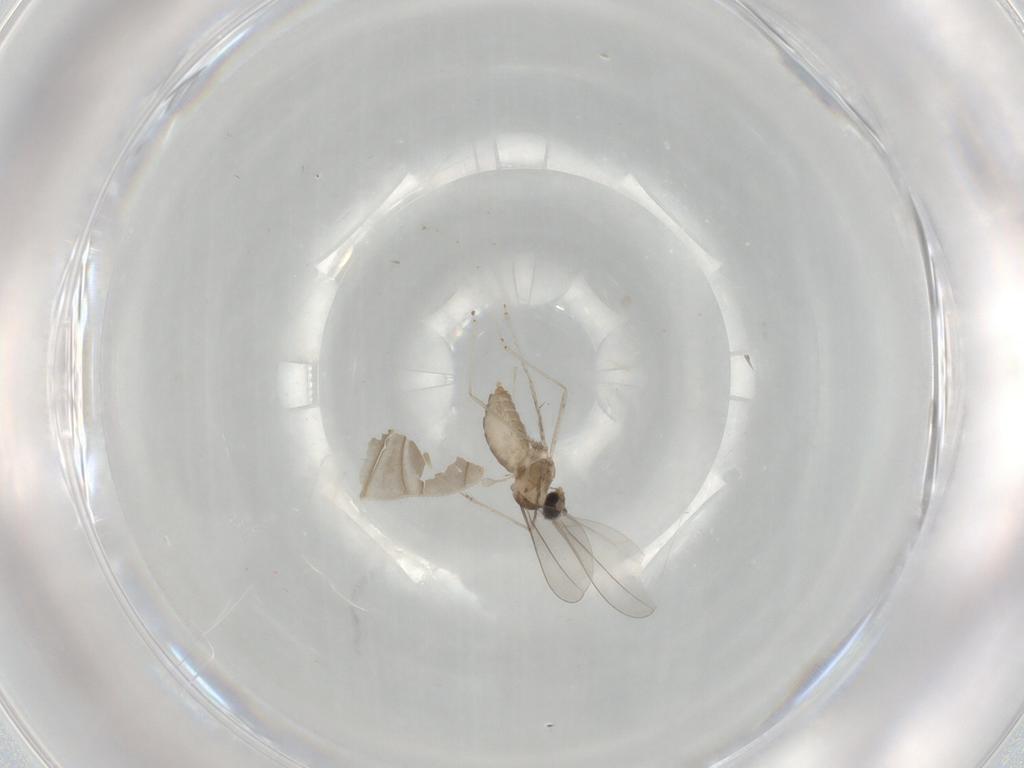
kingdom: Animalia
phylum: Arthropoda
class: Insecta
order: Diptera
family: Cecidomyiidae
